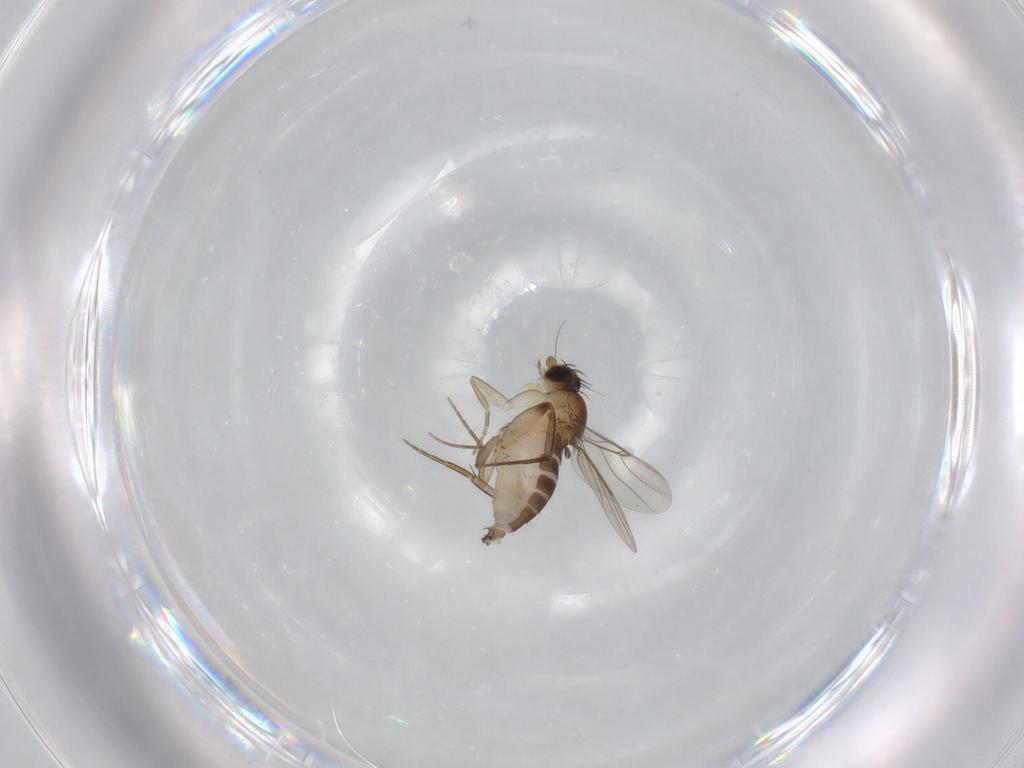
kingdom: Animalia
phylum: Arthropoda
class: Insecta
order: Diptera
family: Phoridae
